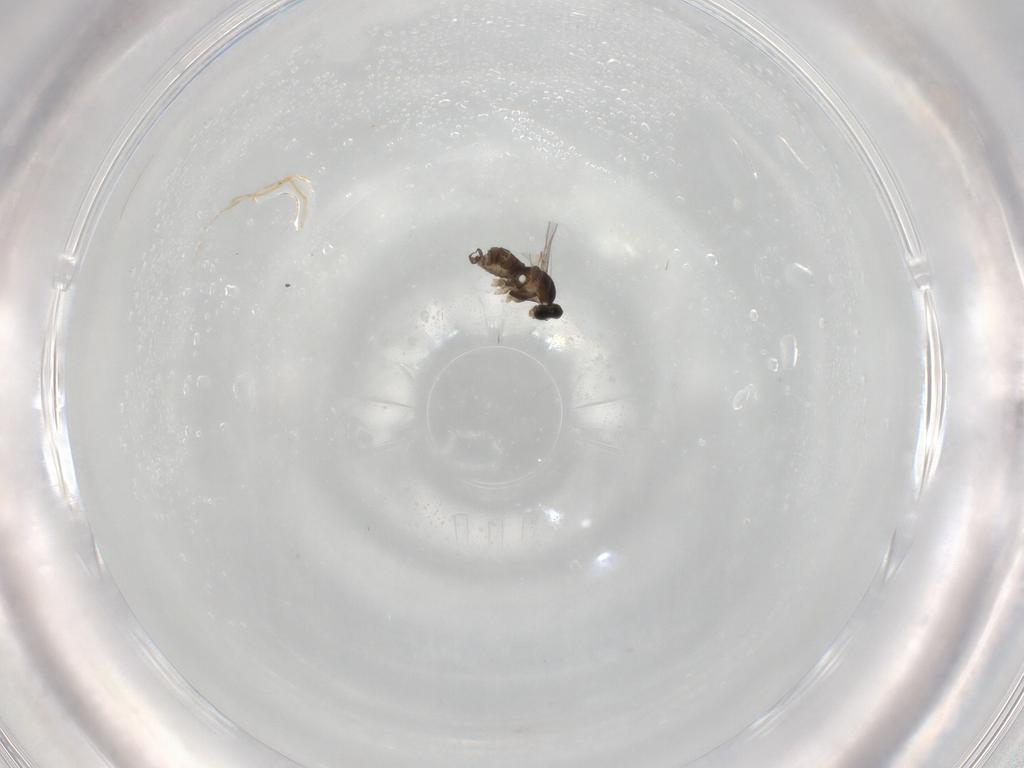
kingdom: Animalia
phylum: Arthropoda
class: Insecta
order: Diptera
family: Cecidomyiidae
